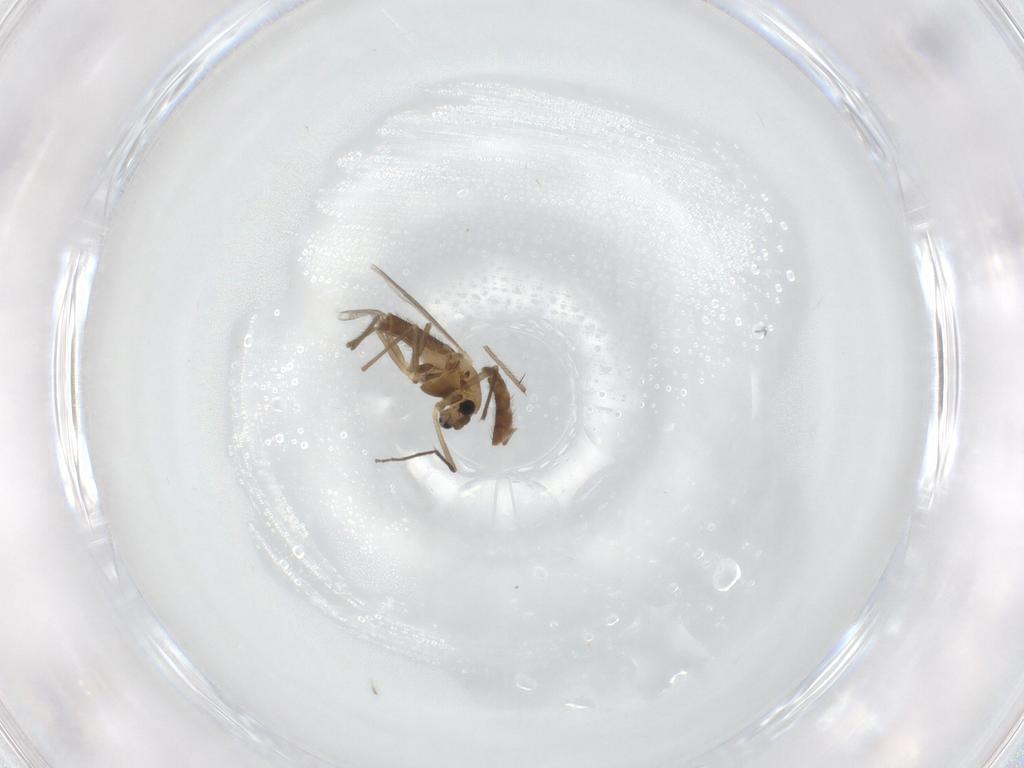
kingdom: Animalia
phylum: Arthropoda
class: Insecta
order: Diptera
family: Chironomidae
